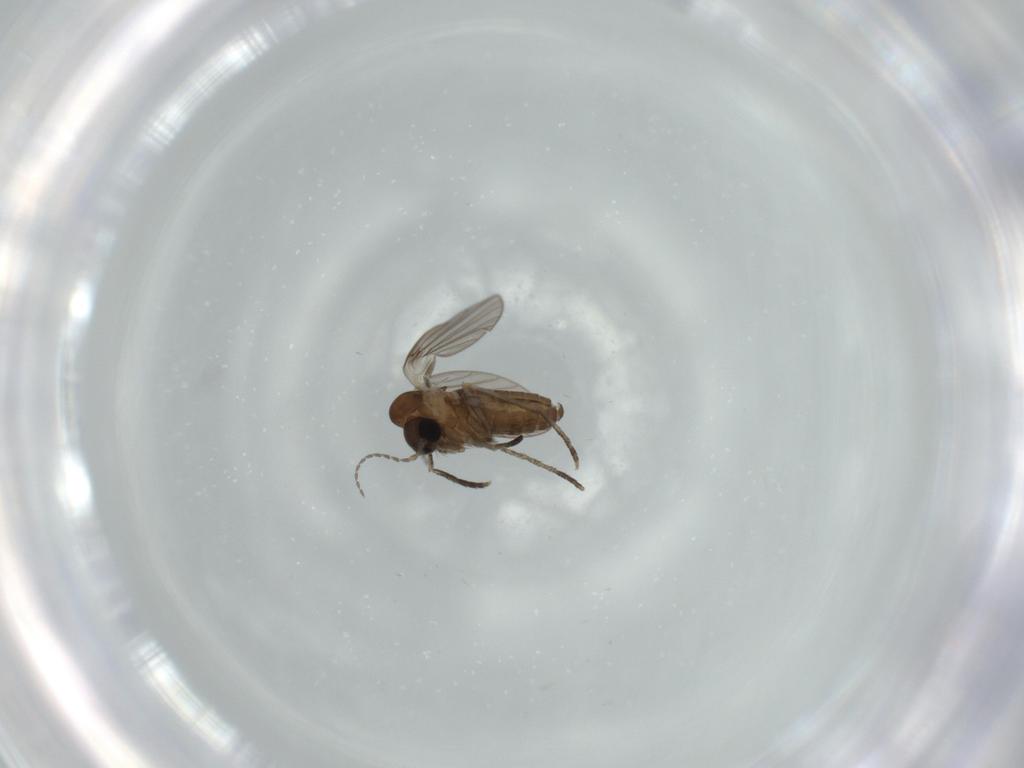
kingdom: Animalia
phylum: Arthropoda
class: Insecta
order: Diptera
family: Psychodidae
